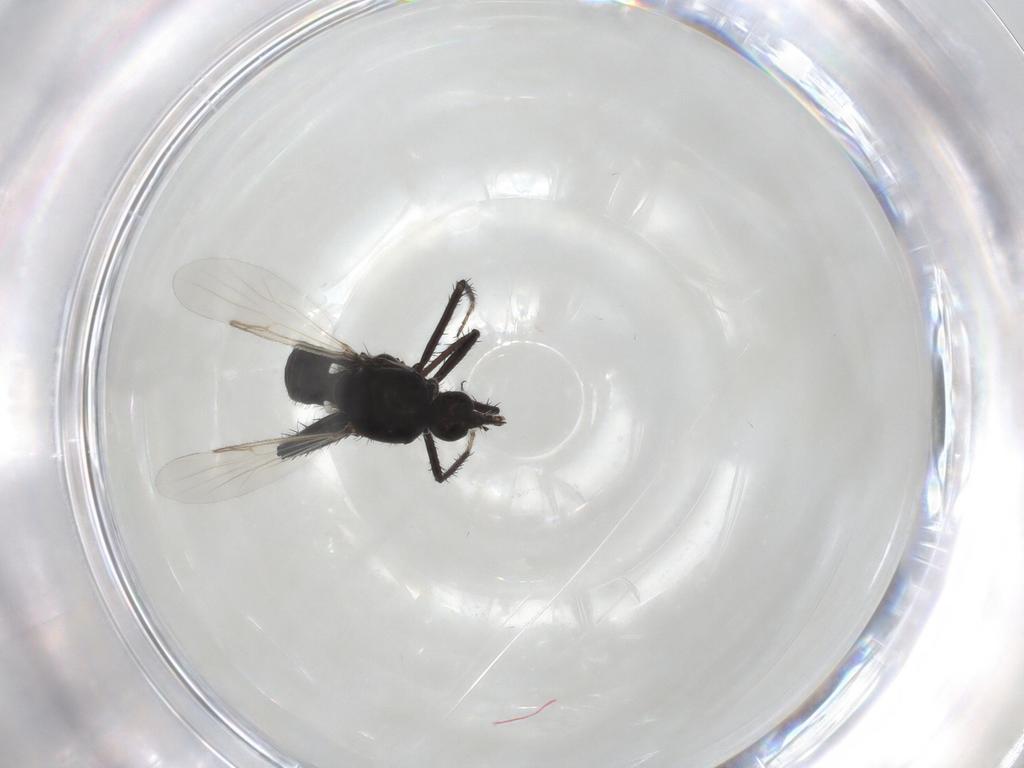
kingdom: Animalia
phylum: Arthropoda
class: Insecta
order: Diptera
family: Ceratopogonidae
